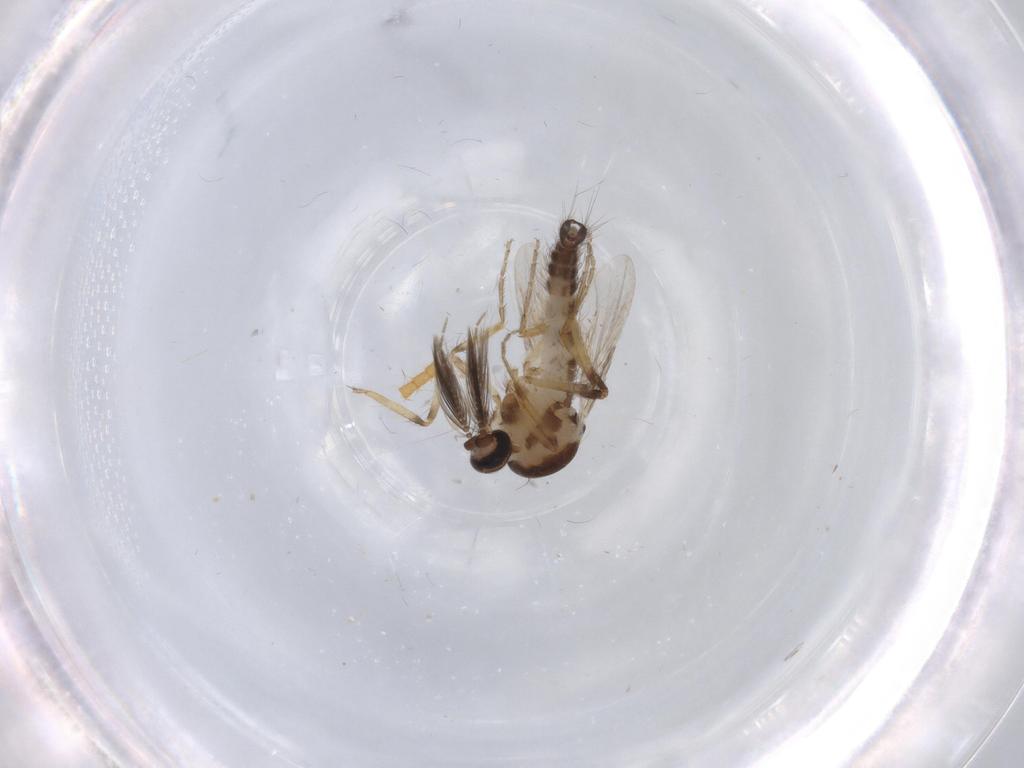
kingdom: Animalia
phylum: Arthropoda
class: Insecta
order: Diptera
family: Ceratopogonidae
